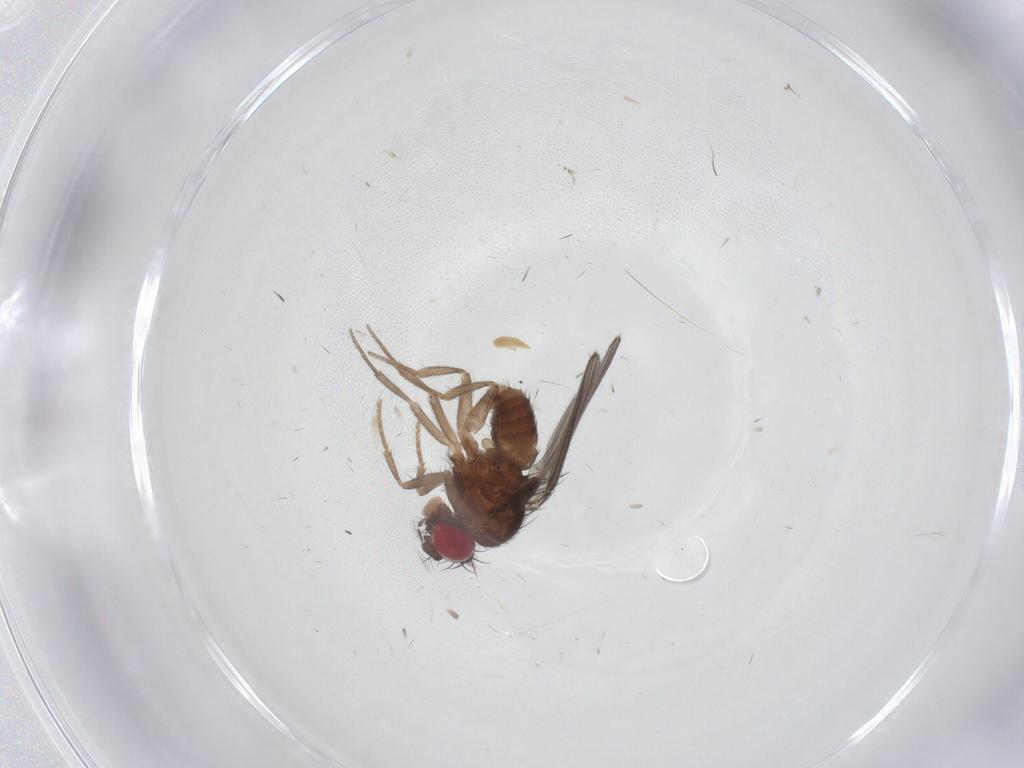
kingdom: Animalia
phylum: Arthropoda
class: Insecta
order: Diptera
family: Drosophilidae
